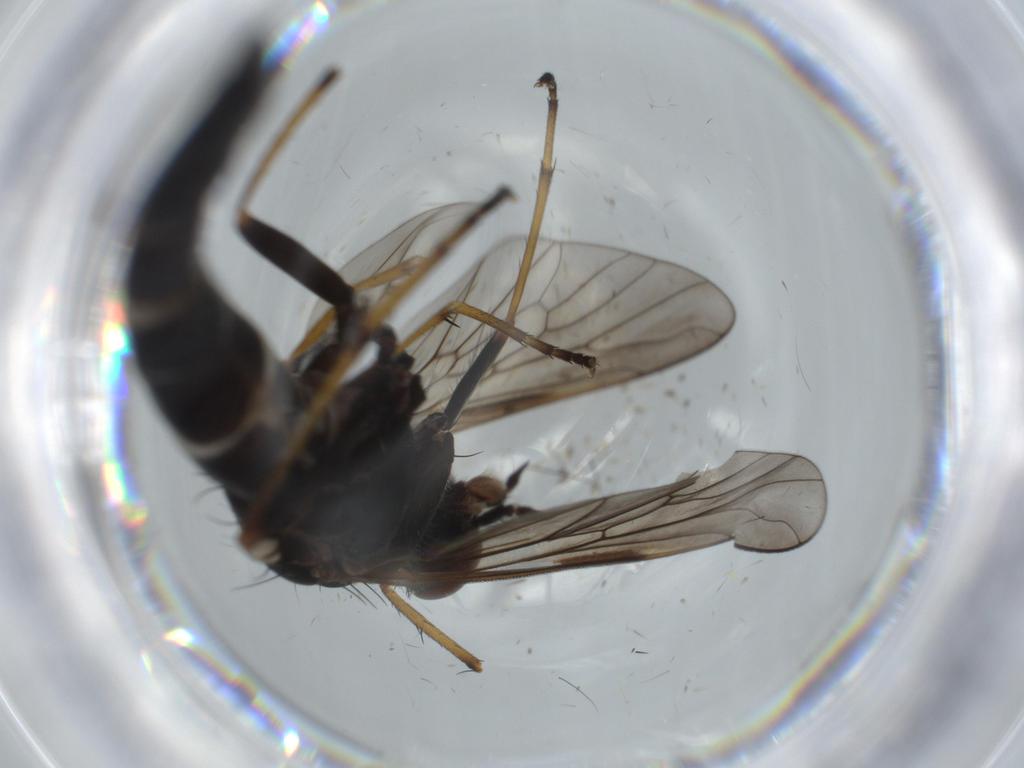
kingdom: Animalia
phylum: Arthropoda
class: Insecta
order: Diptera
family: Therevidae
